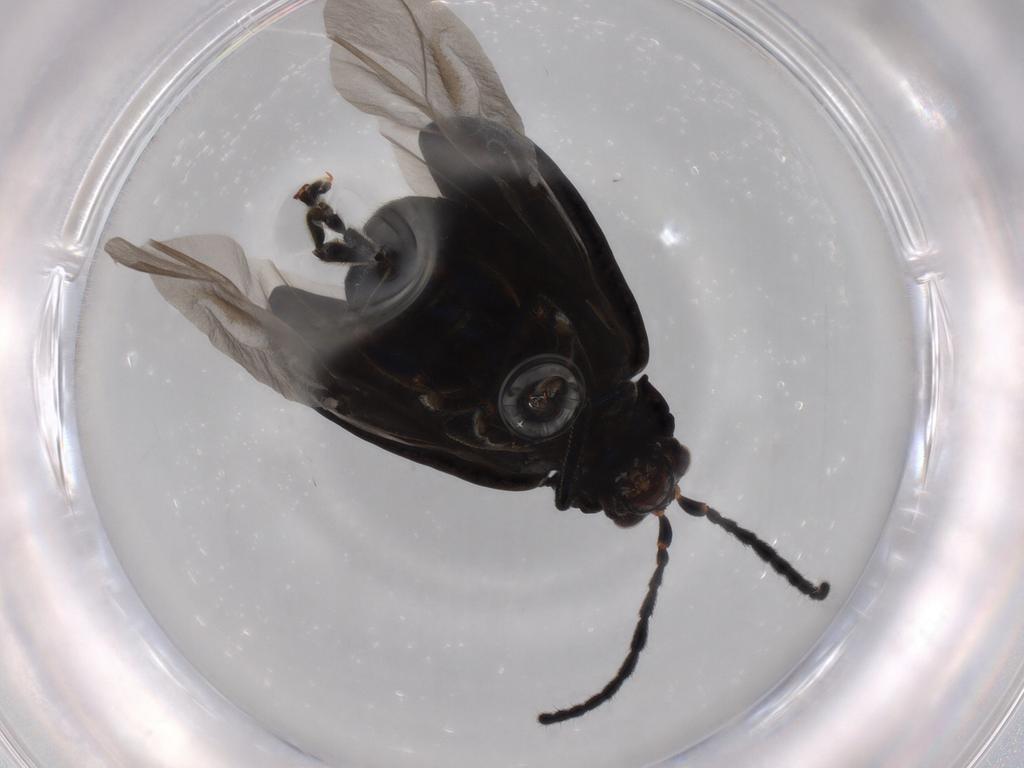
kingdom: Animalia
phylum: Arthropoda
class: Insecta
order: Coleoptera
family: Chrysomelidae
